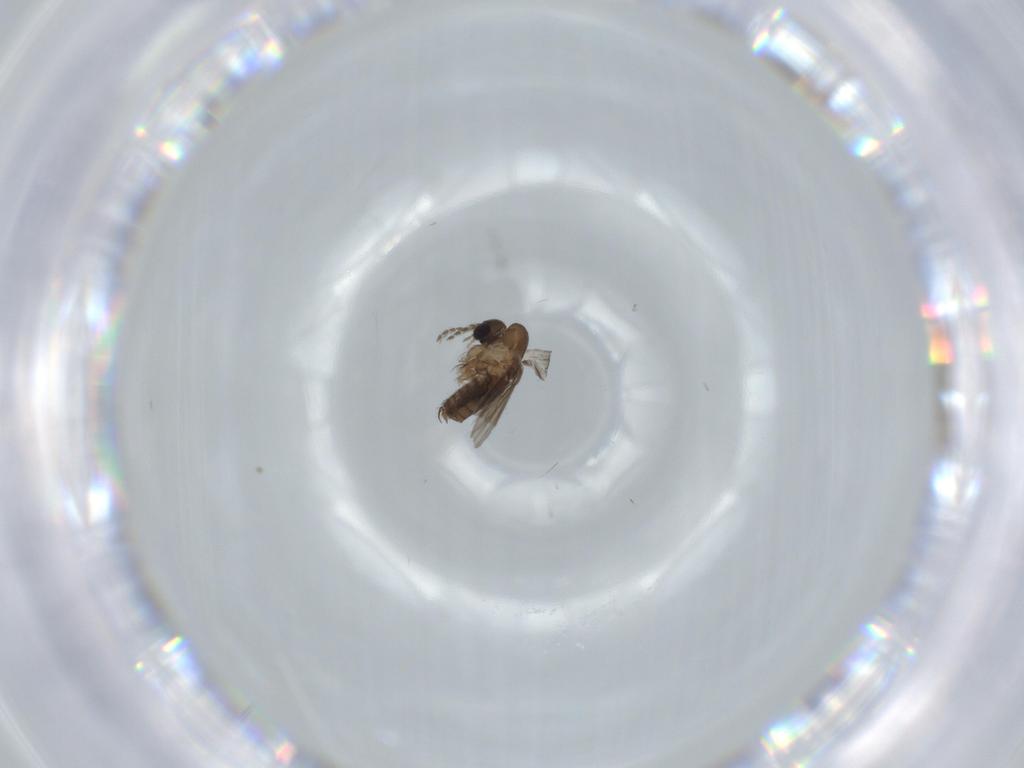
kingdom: Animalia
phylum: Arthropoda
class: Insecta
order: Diptera
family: Psychodidae
